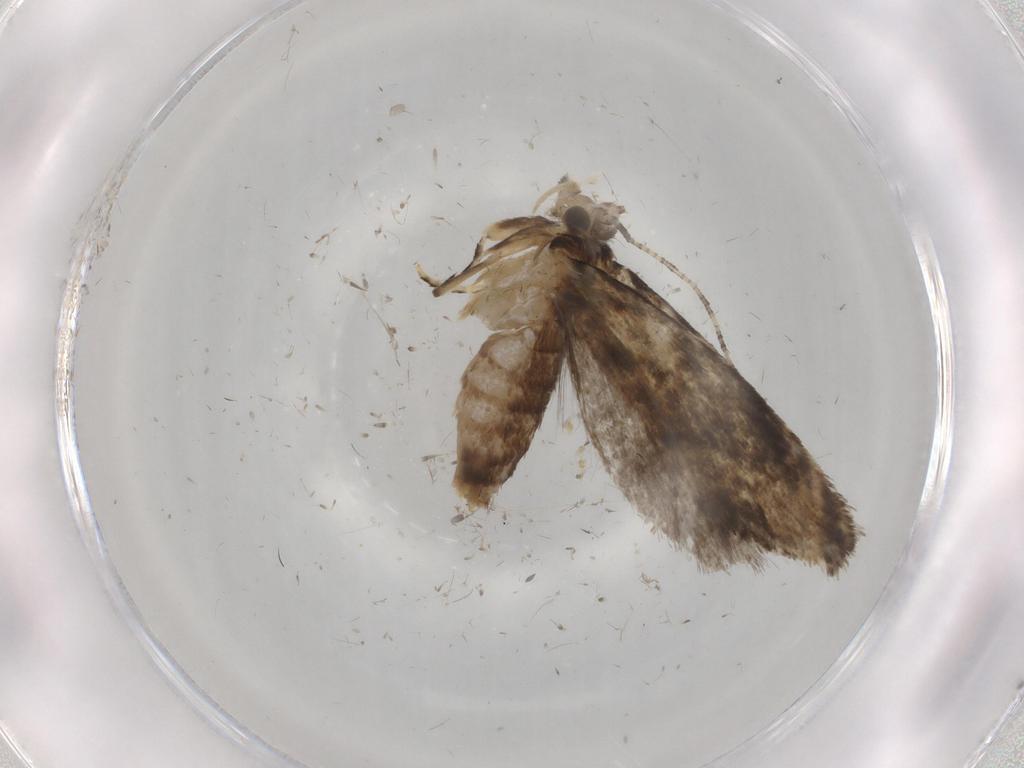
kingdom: Animalia
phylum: Arthropoda
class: Insecta
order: Lepidoptera
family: Tineidae
